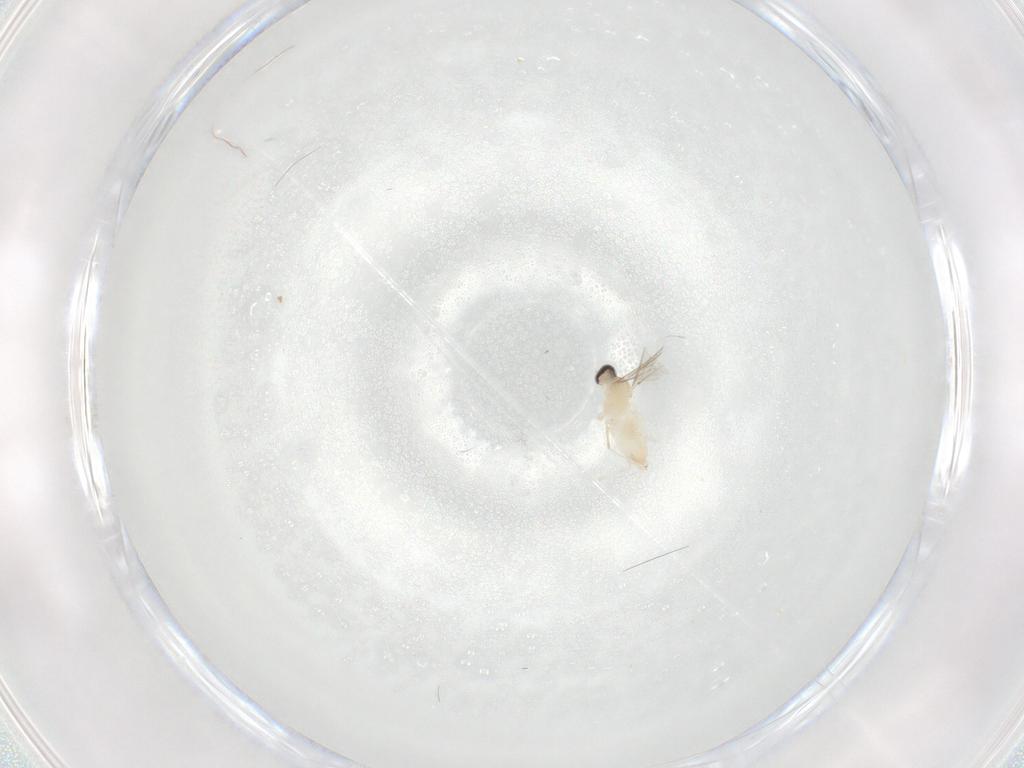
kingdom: Animalia
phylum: Arthropoda
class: Insecta
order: Diptera
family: Cecidomyiidae
